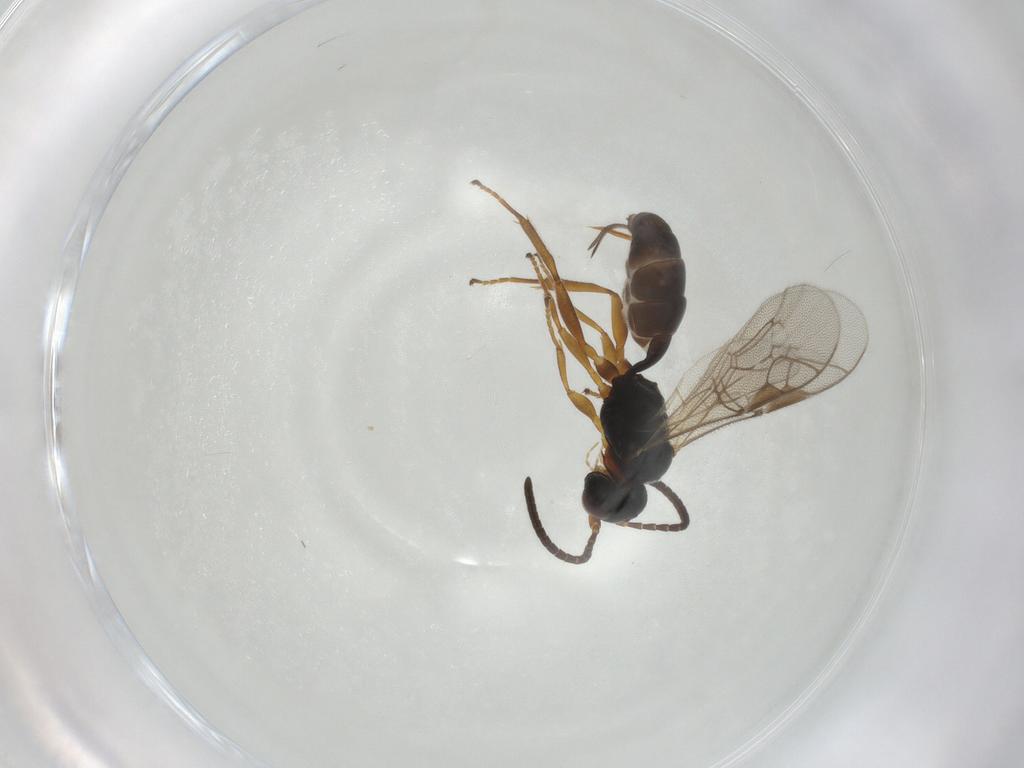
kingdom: Animalia
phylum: Arthropoda
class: Insecta
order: Hymenoptera
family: Ichneumonidae
